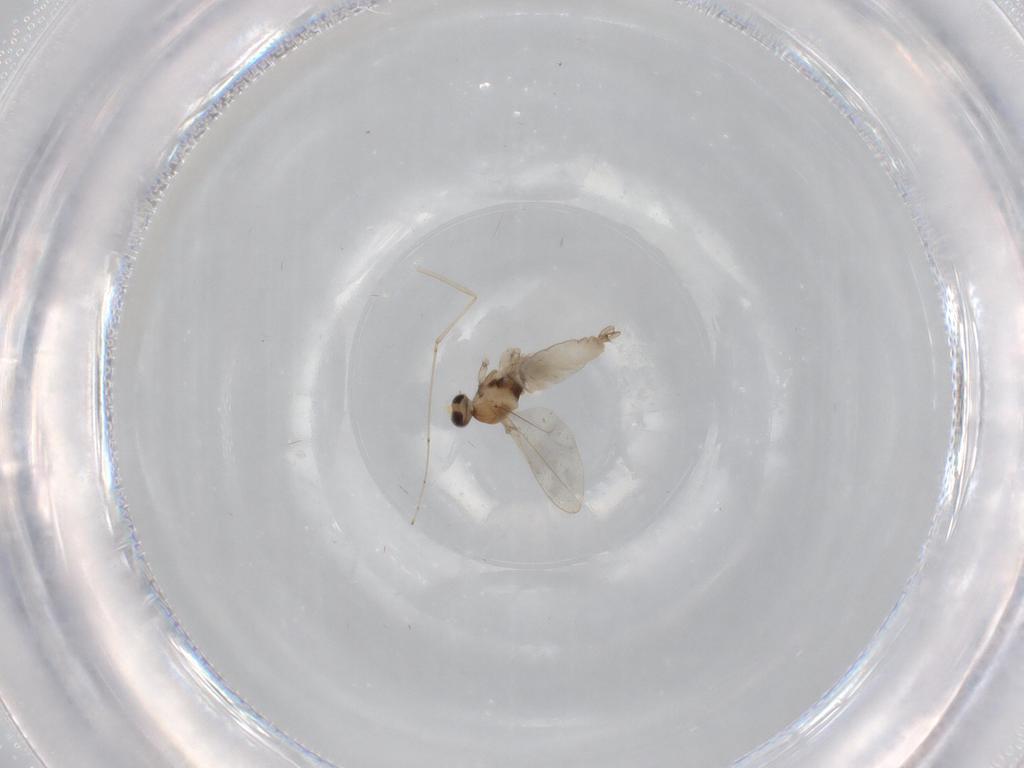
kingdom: Animalia
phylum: Arthropoda
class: Insecta
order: Diptera
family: Cecidomyiidae
